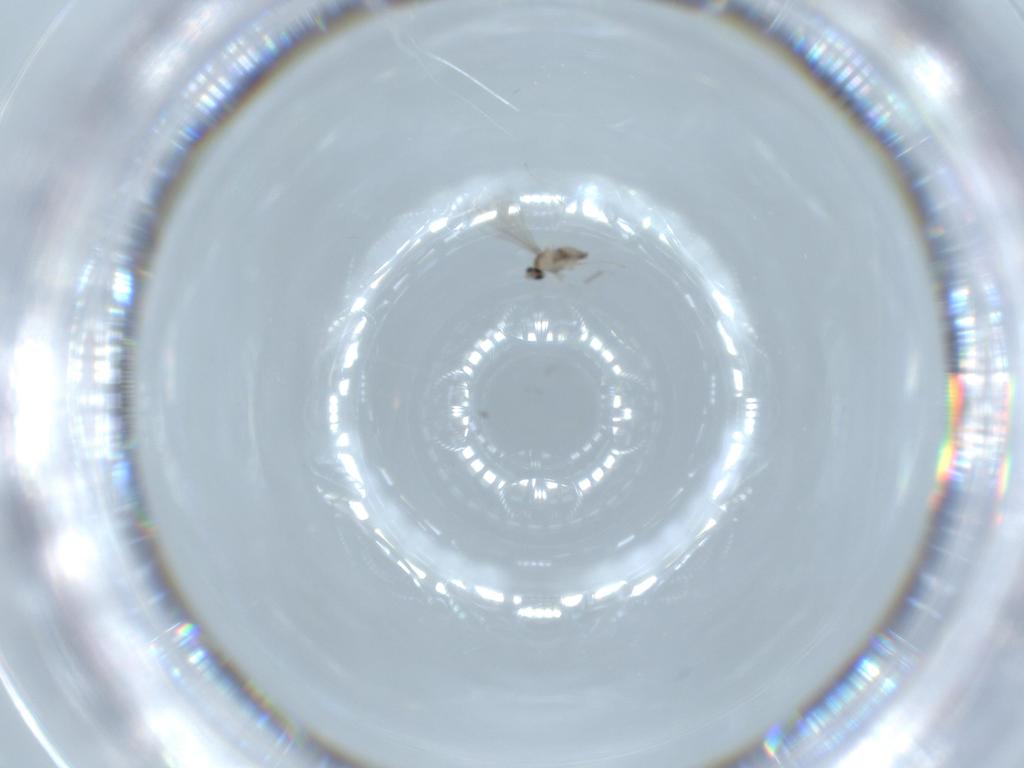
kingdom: Animalia
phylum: Arthropoda
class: Insecta
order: Diptera
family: Cecidomyiidae
